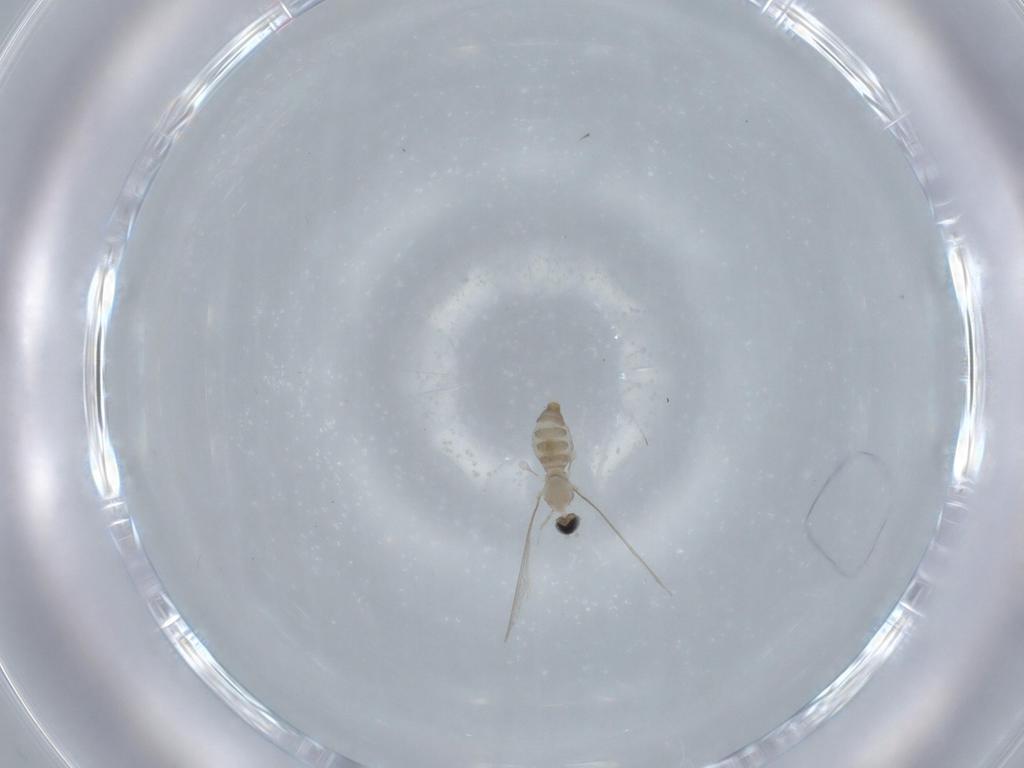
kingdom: Animalia
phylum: Arthropoda
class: Insecta
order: Diptera
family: Cecidomyiidae
